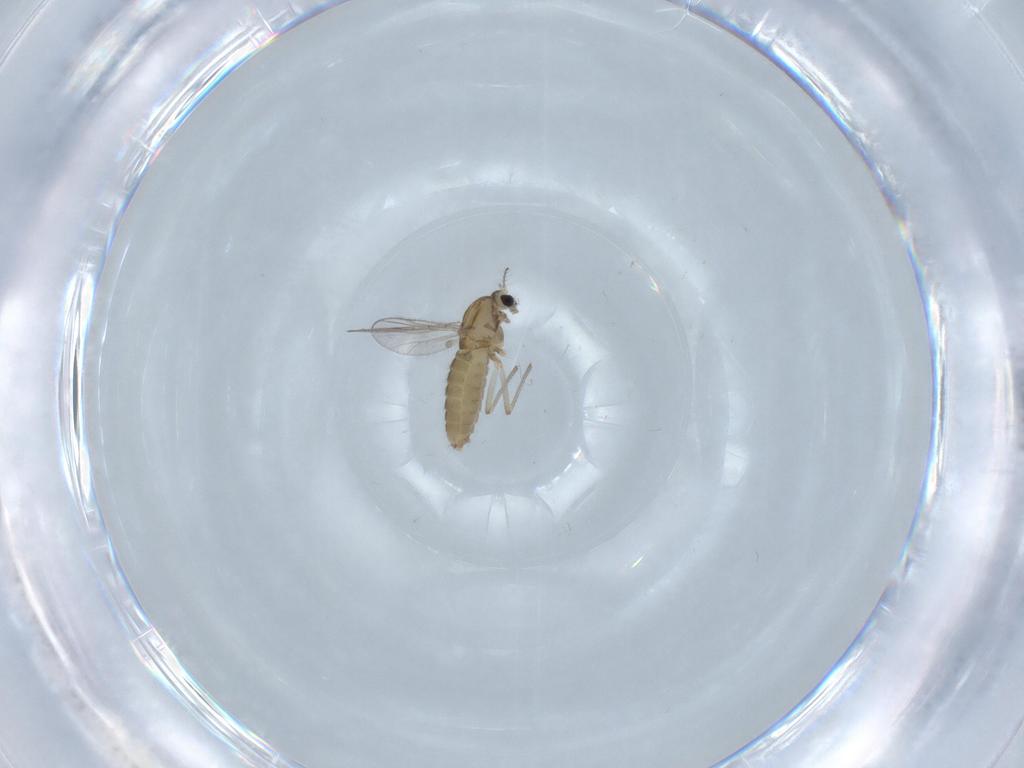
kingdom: Animalia
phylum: Arthropoda
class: Insecta
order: Diptera
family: Chironomidae
